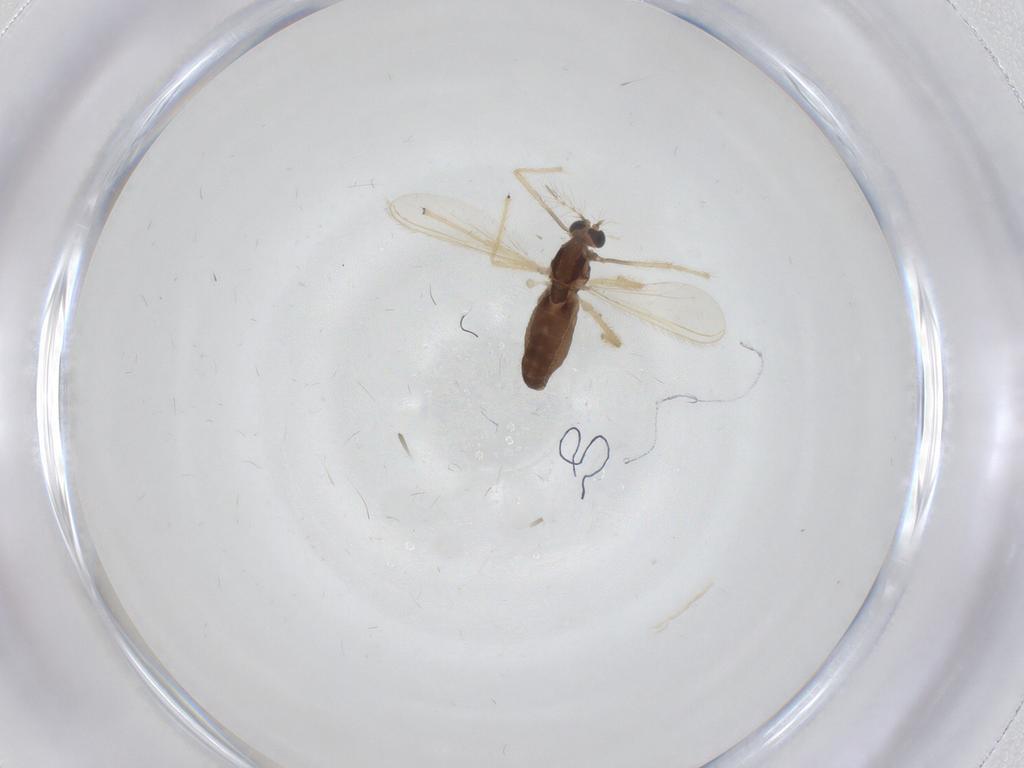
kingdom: Animalia
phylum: Arthropoda
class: Insecta
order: Diptera
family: Chironomidae
